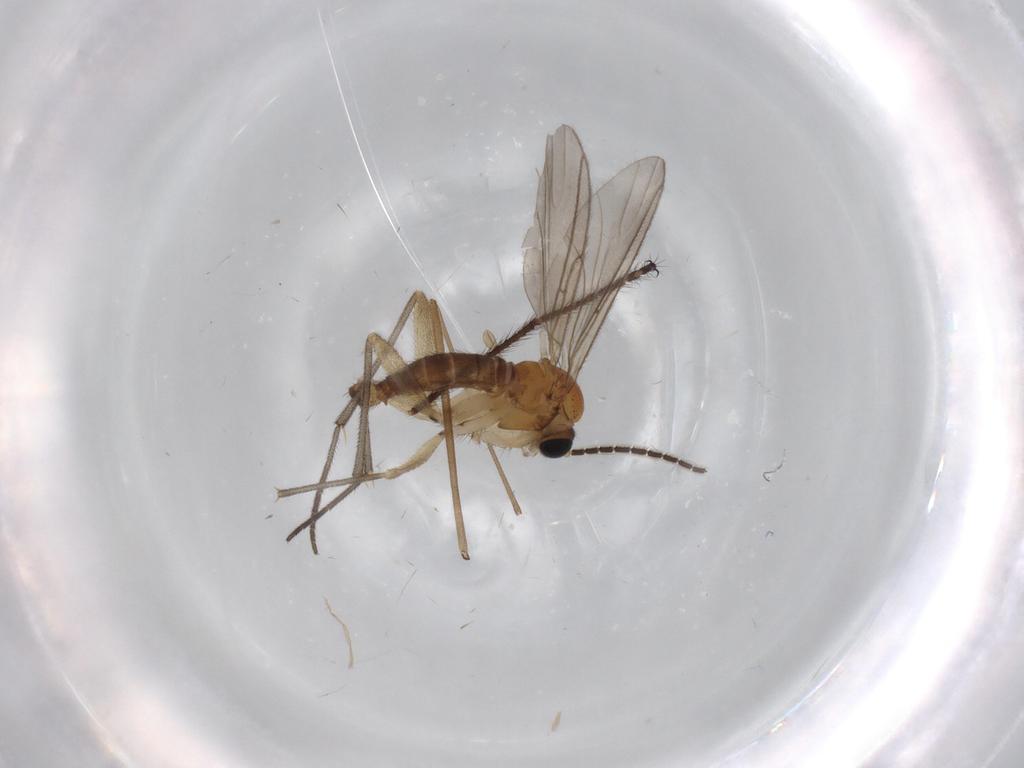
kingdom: Animalia
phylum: Arthropoda
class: Insecta
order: Diptera
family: Sciaridae
